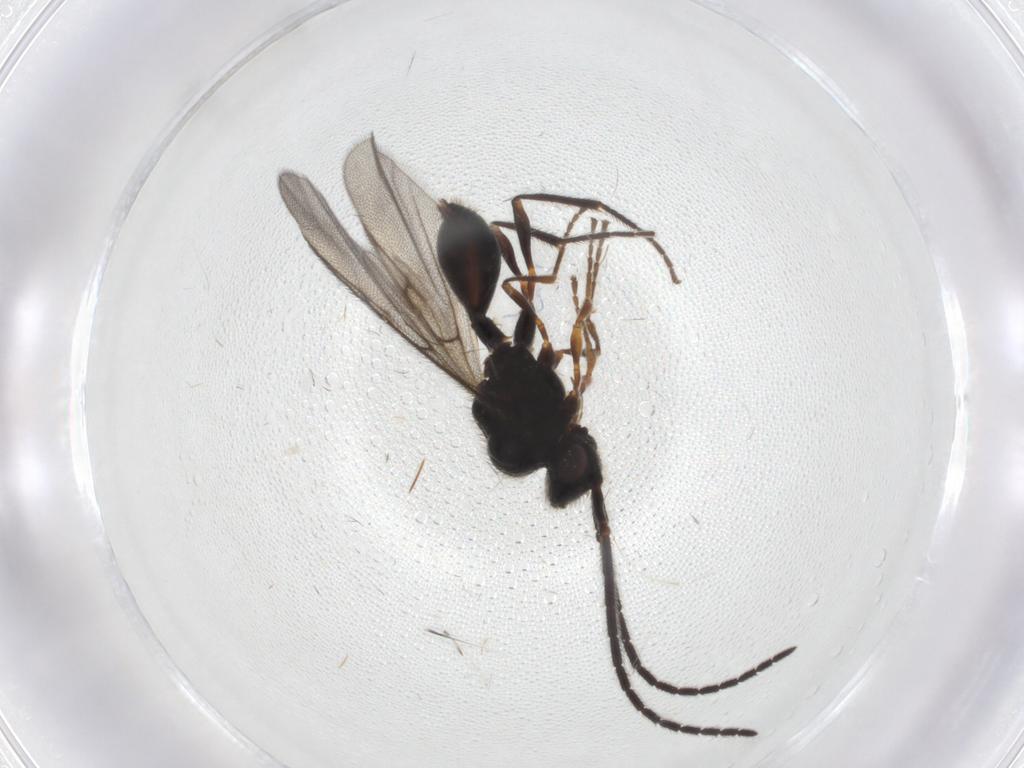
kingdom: Animalia
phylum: Arthropoda
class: Insecta
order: Hymenoptera
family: Diapriidae
